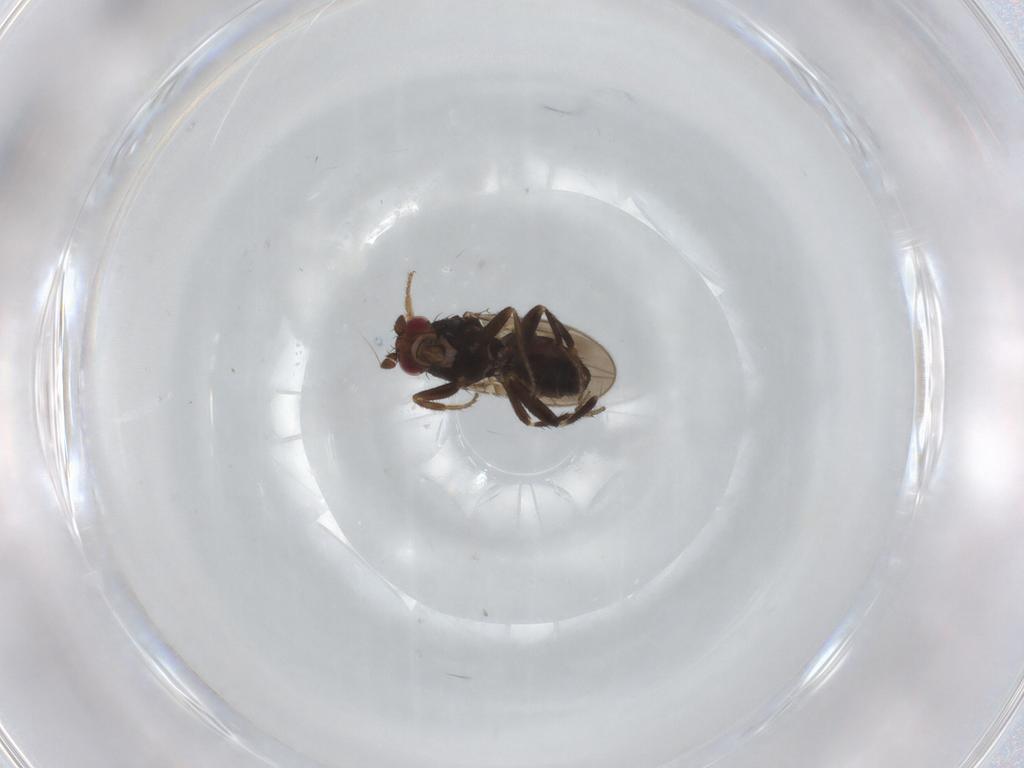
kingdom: Animalia
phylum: Arthropoda
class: Insecta
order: Diptera
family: Sphaeroceridae
